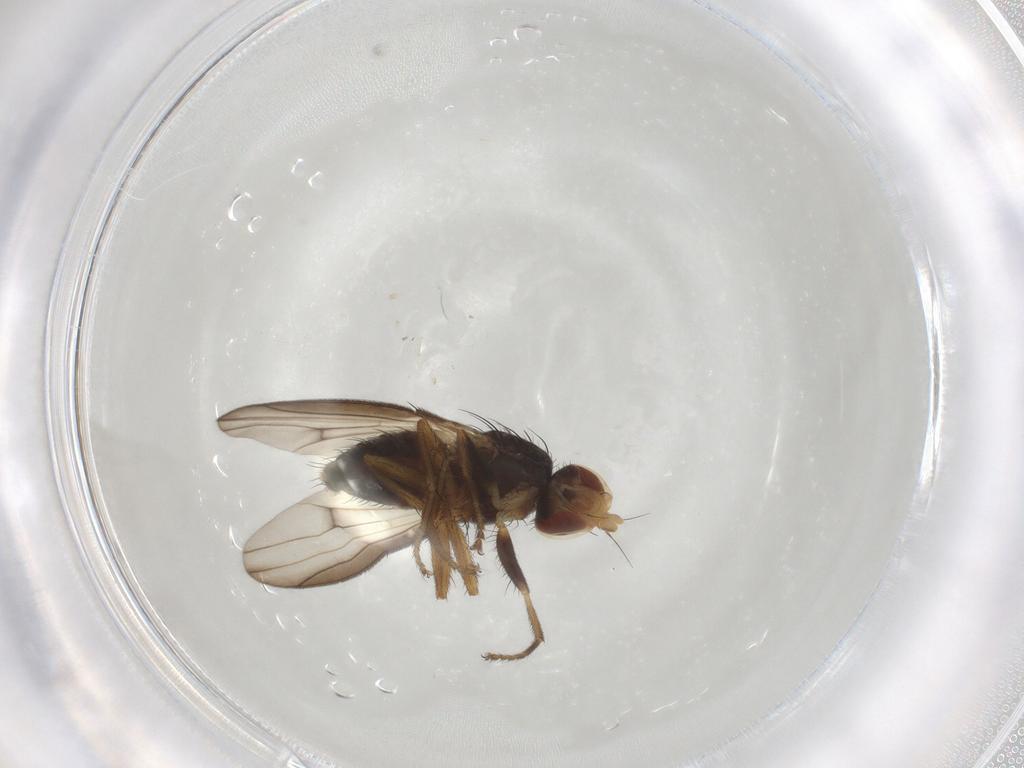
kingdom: Animalia
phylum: Arthropoda
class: Insecta
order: Diptera
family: Heleomyzidae
